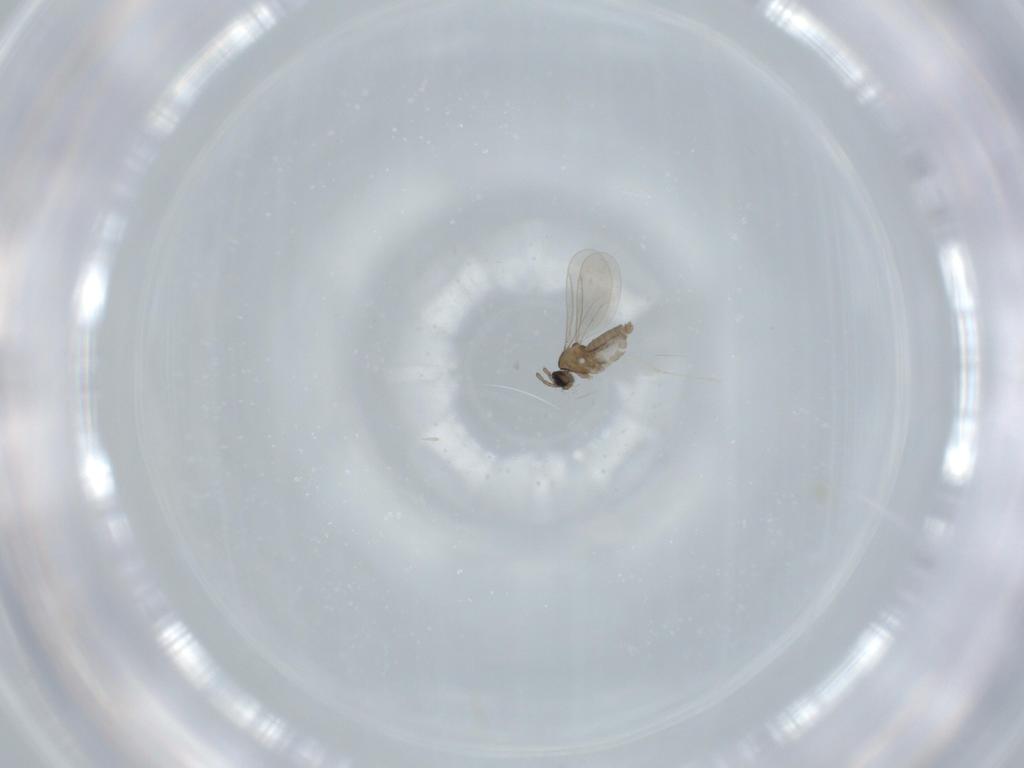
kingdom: Animalia
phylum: Arthropoda
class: Insecta
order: Diptera
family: Cecidomyiidae
